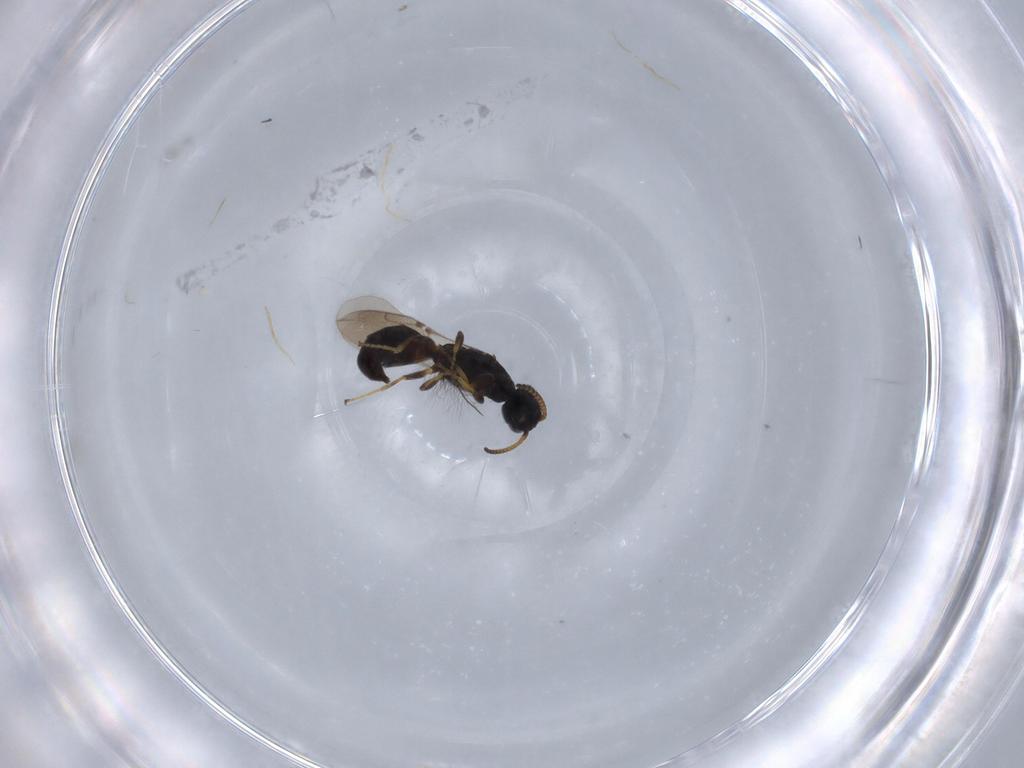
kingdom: Animalia
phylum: Arthropoda
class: Insecta
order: Hymenoptera
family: Bethylidae
